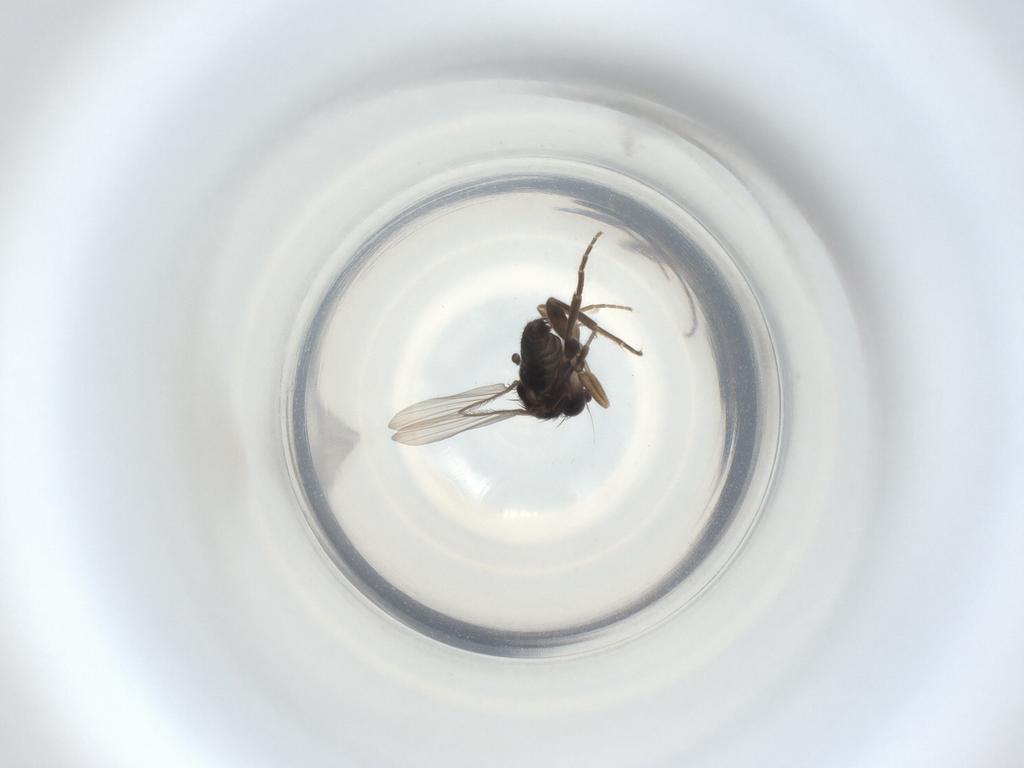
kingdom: Animalia
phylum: Arthropoda
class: Insecta
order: Diptera
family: Phoridae
